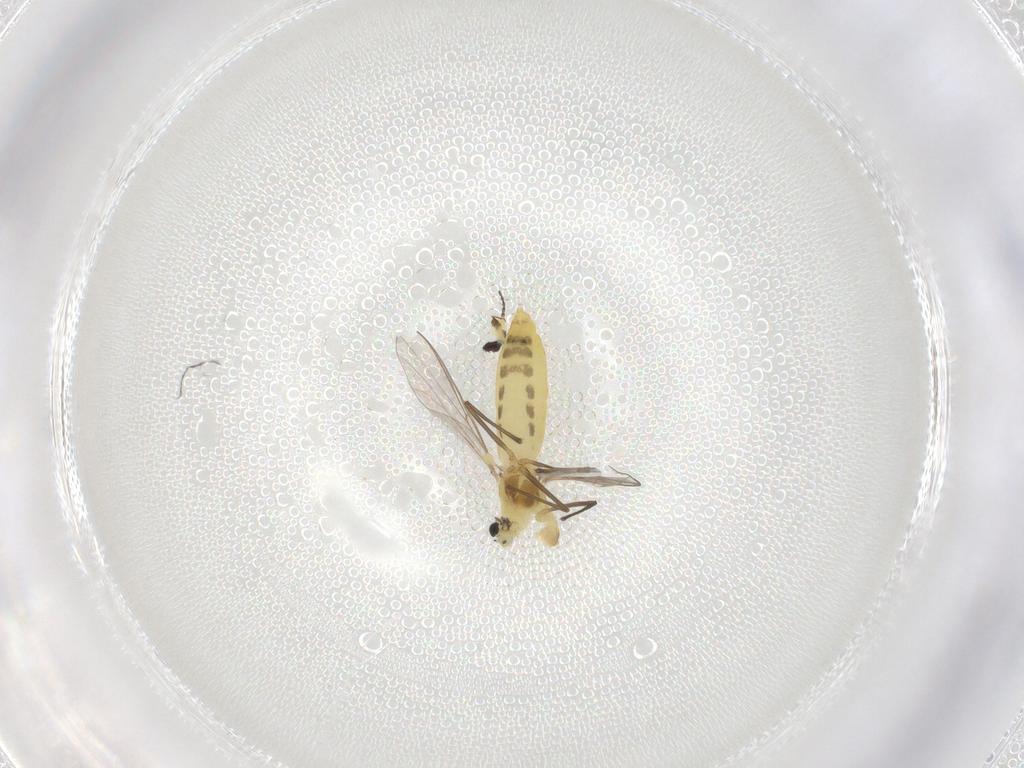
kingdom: Animalia
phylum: Arthropoda
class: Insecta
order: Diptera
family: Chironomidae
